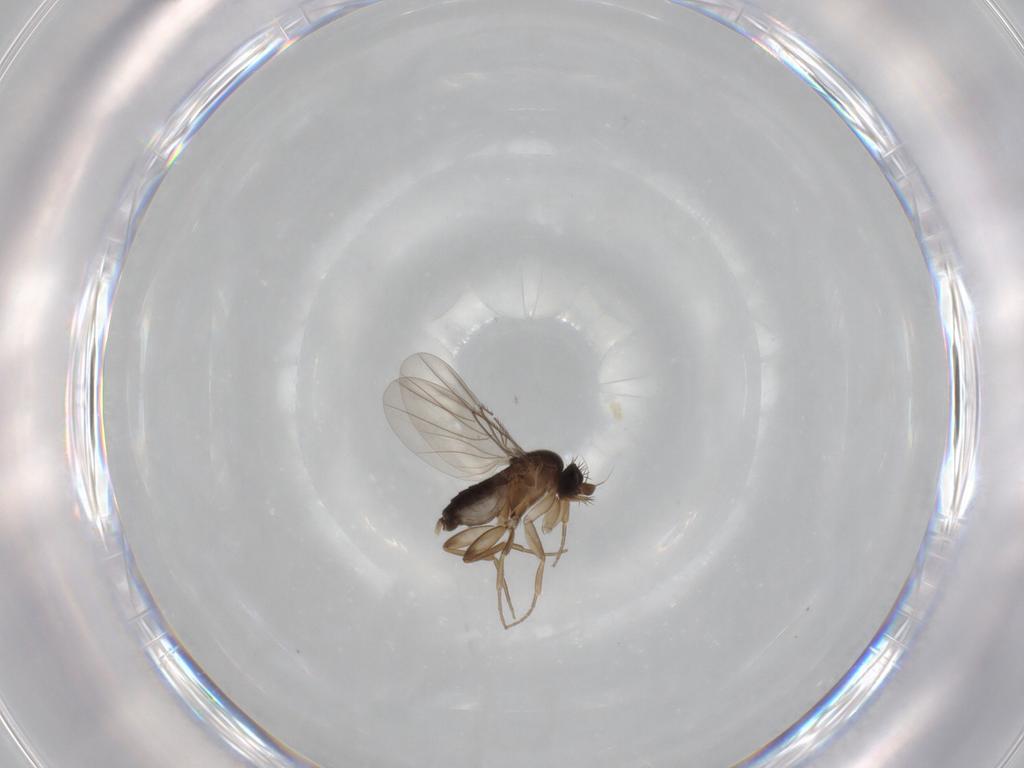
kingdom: Animalia
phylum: Arthropoda
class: Insecta
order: Diptera
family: Phoridae
